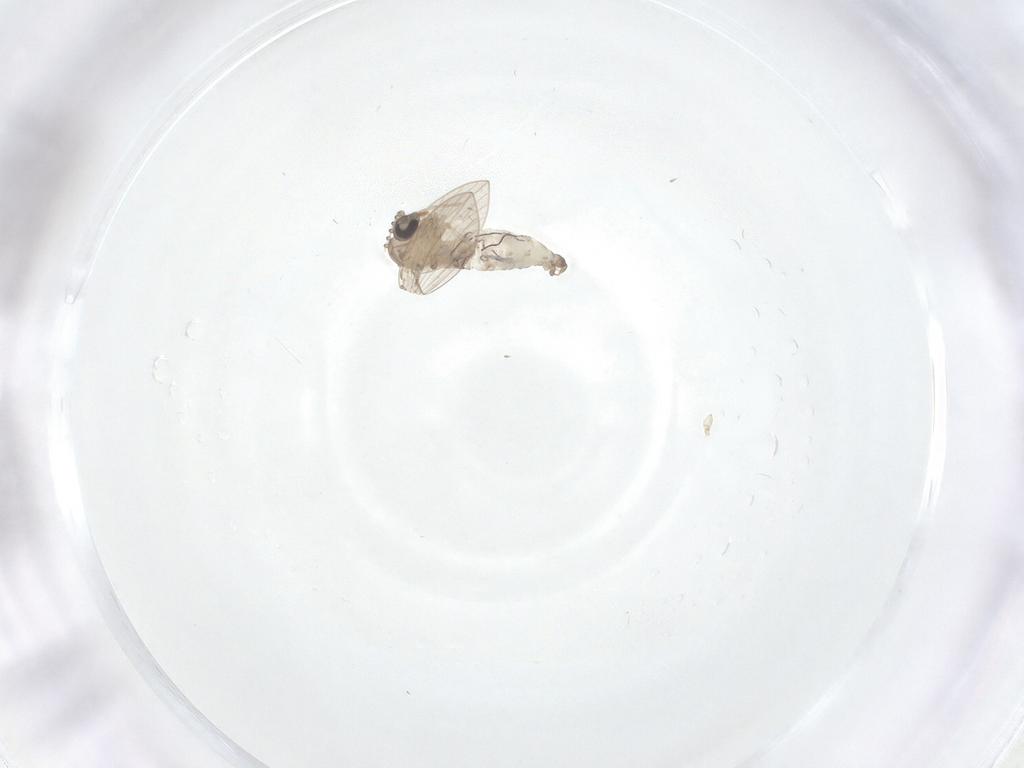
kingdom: Animalia
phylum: Arthropoda
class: Insecta
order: Diptera
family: Psychodidae
